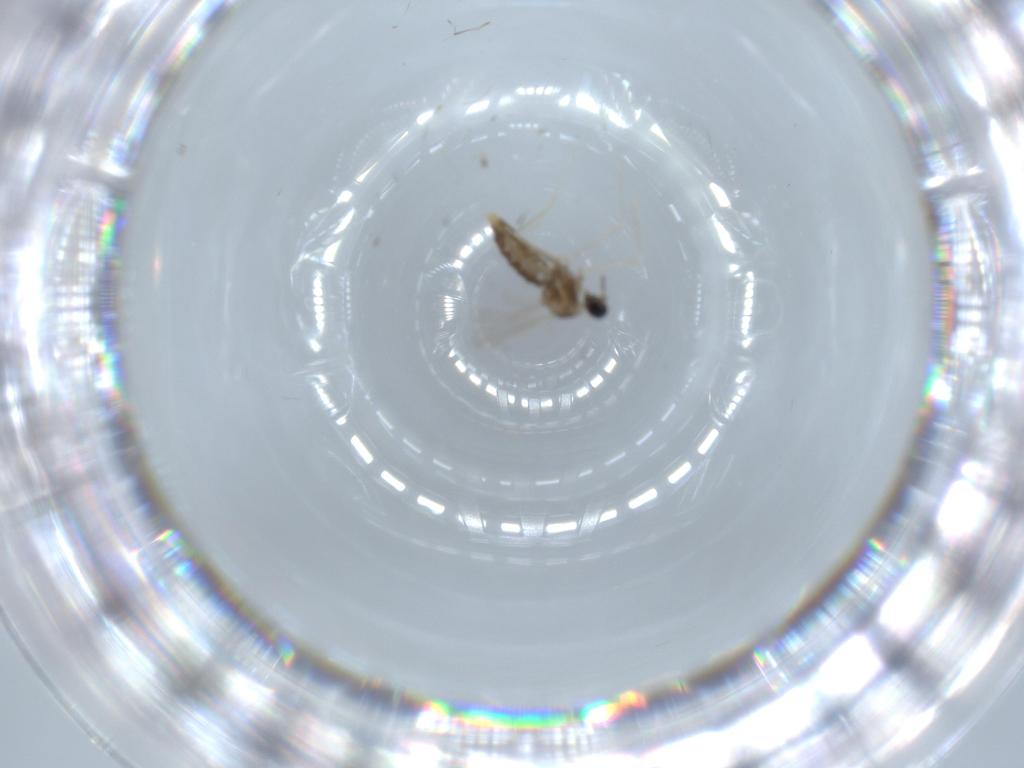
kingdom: Animalia
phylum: Arthropoda
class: Insecta
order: Diptera
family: Cecidomyiidae
